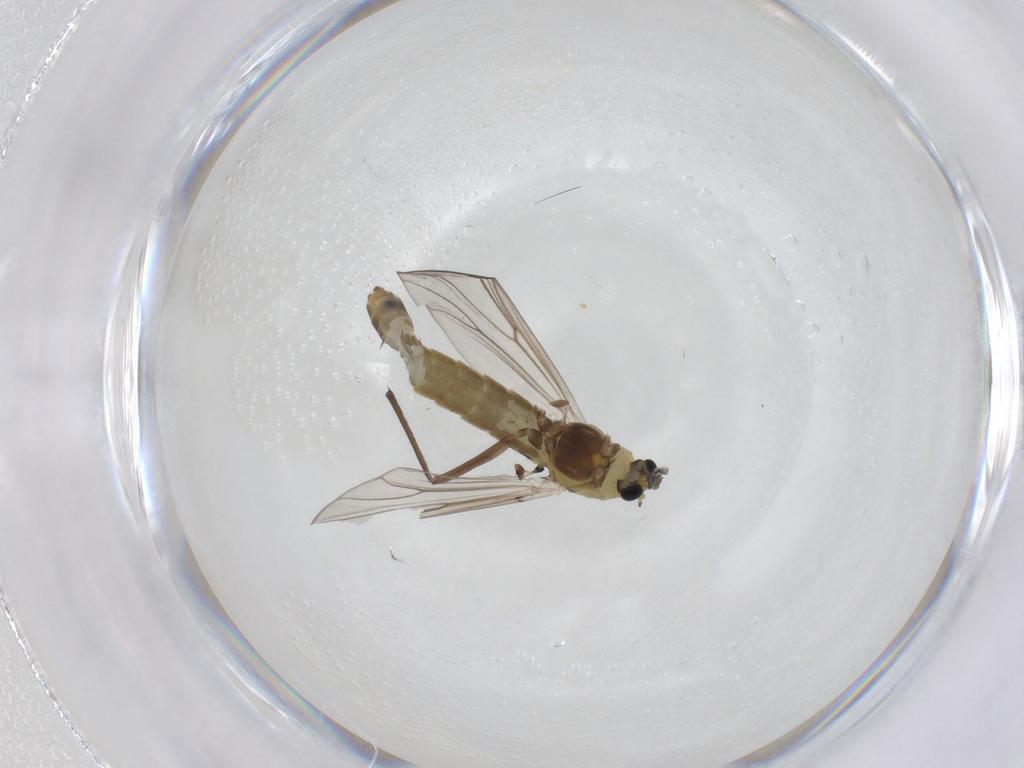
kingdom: Animalia
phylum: Arthropoda
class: Insecta
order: Diptera
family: Chironomidae
